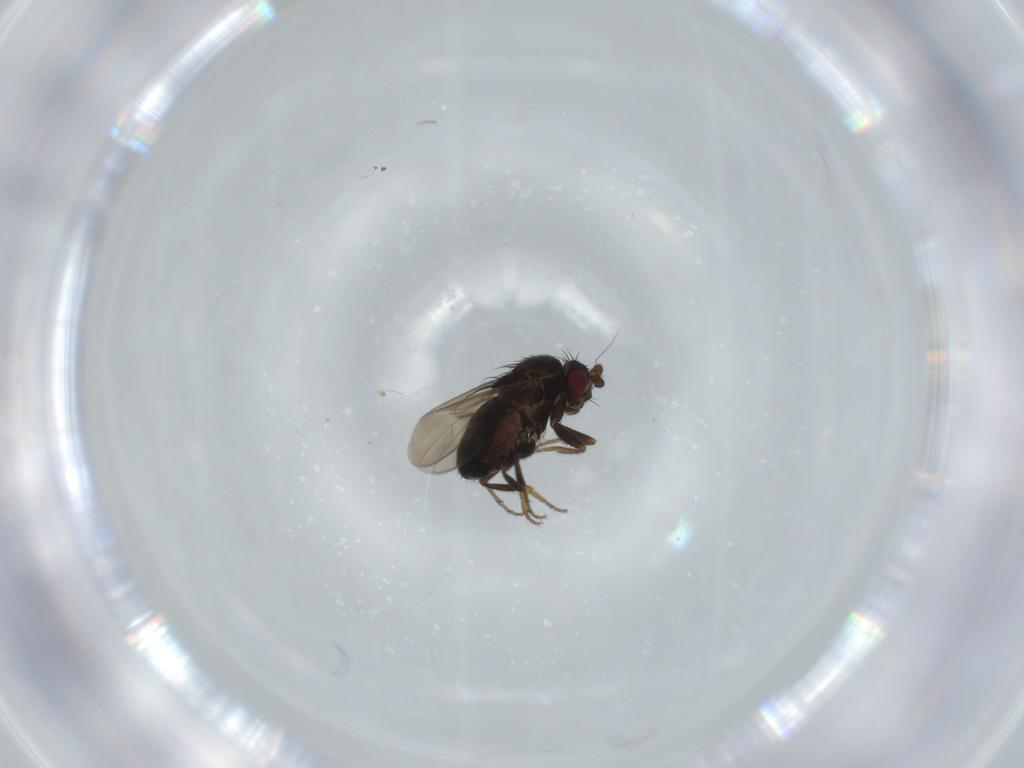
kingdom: Animalia
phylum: Arthropoda
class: Insecta
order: Diptera
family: Sphaeroceridae
